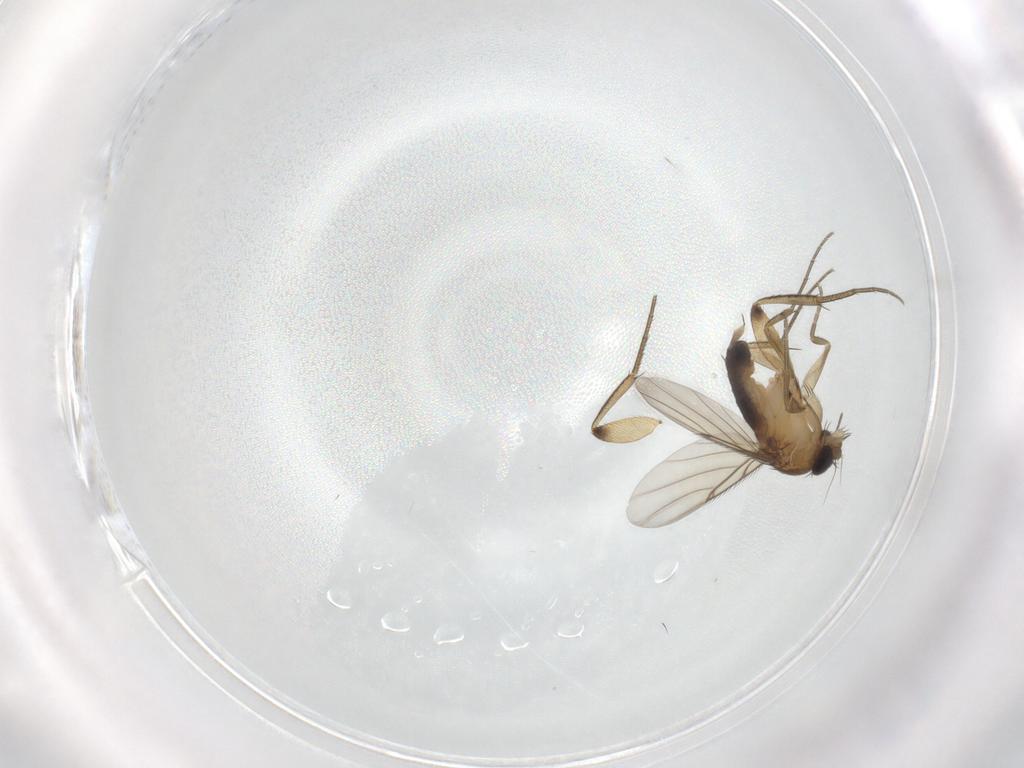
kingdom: Animalia
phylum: Arthropoda
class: Insecta
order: Diptera
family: Phoridae
